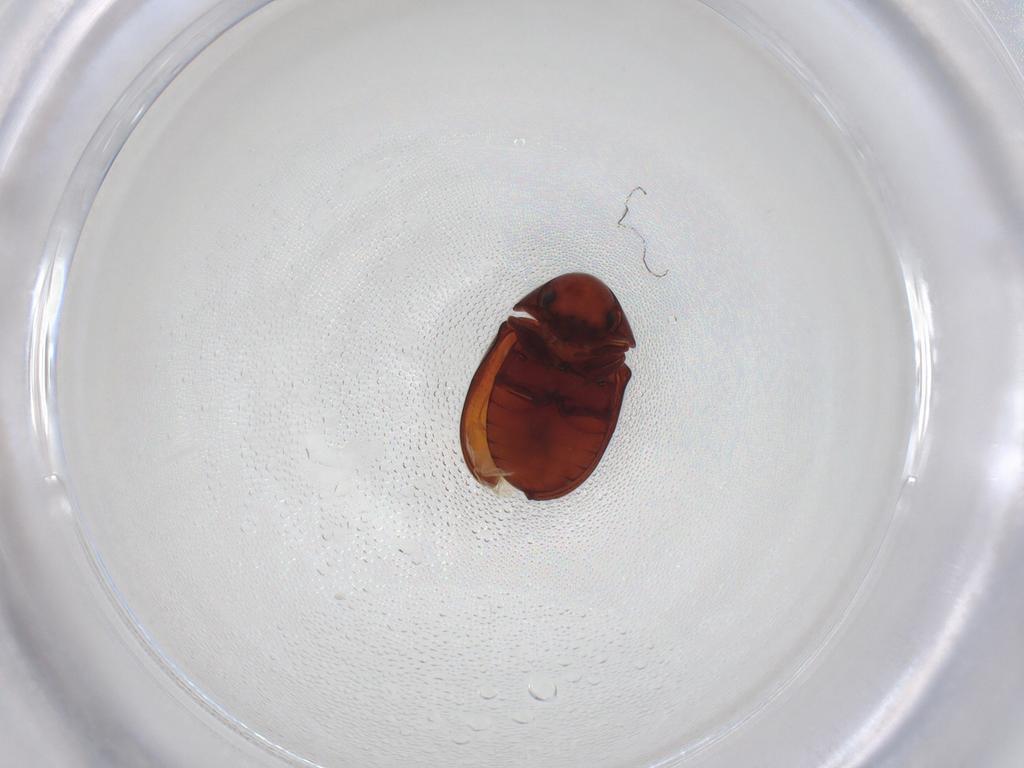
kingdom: Animalia
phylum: Arthropoda
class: Insecta
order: Coleoptera
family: Ptinidae
